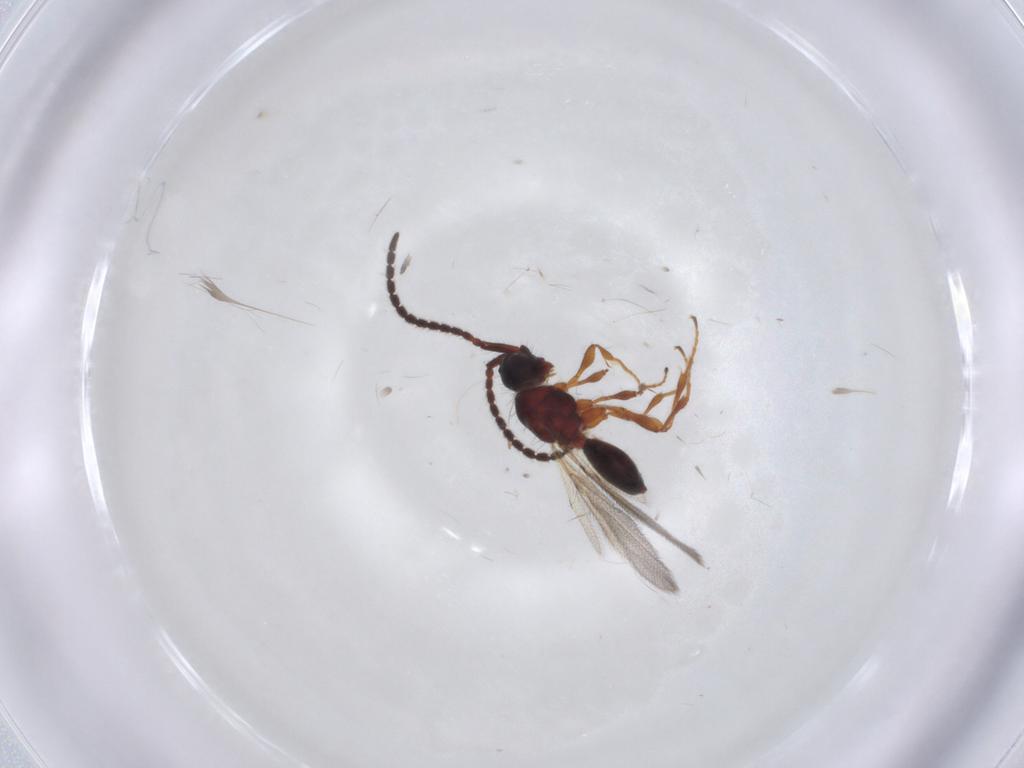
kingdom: Animalia
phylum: Arthropoda
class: Insecta
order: Hymenoptera
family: Diapriidae
